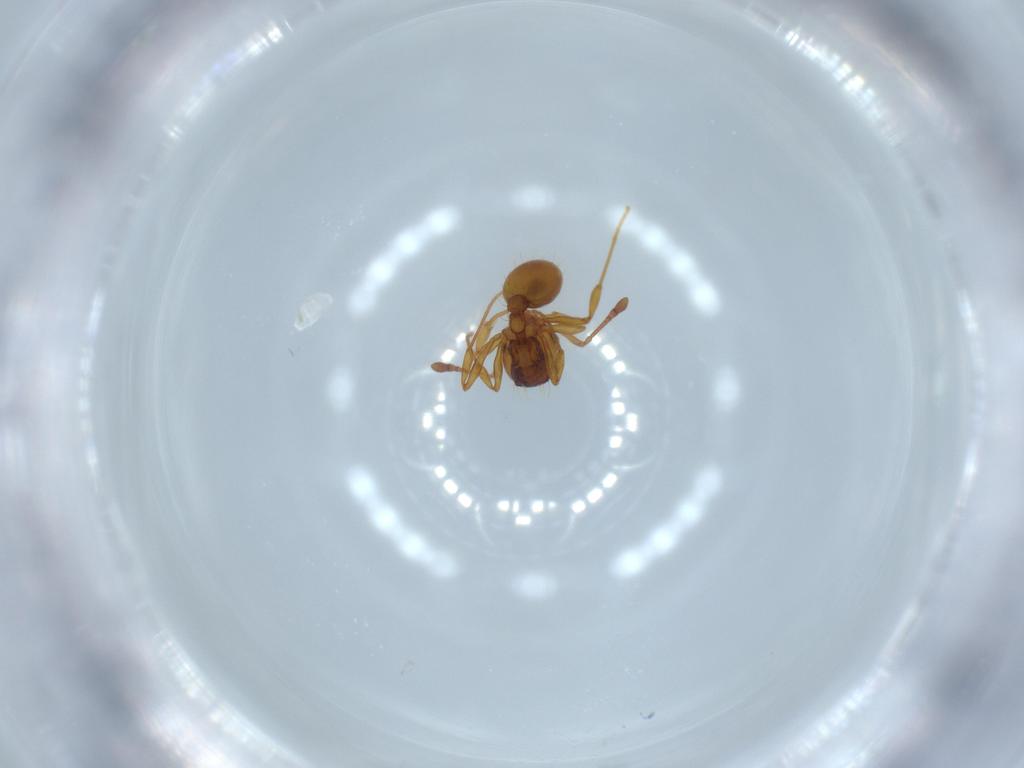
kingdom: Animalia
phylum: Arthropoda
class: Insecta
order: Hymenoptera
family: Formicidae
